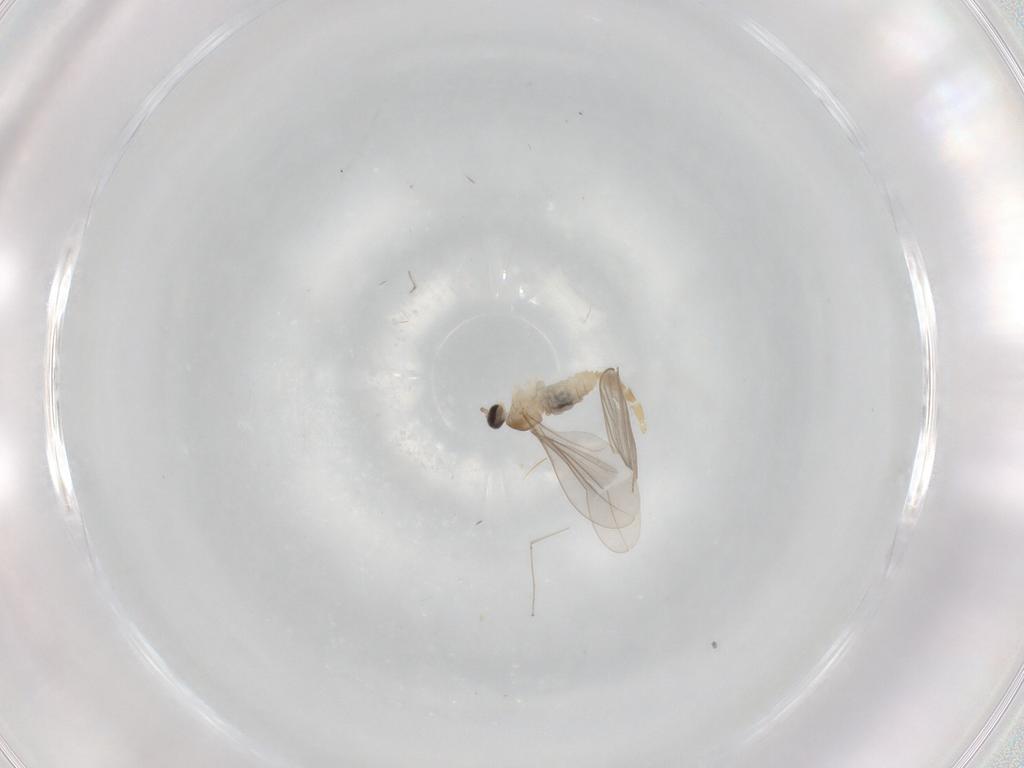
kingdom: Animalia
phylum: Arthropoda
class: Insecta
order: Diptera
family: Cecidomyiidae
